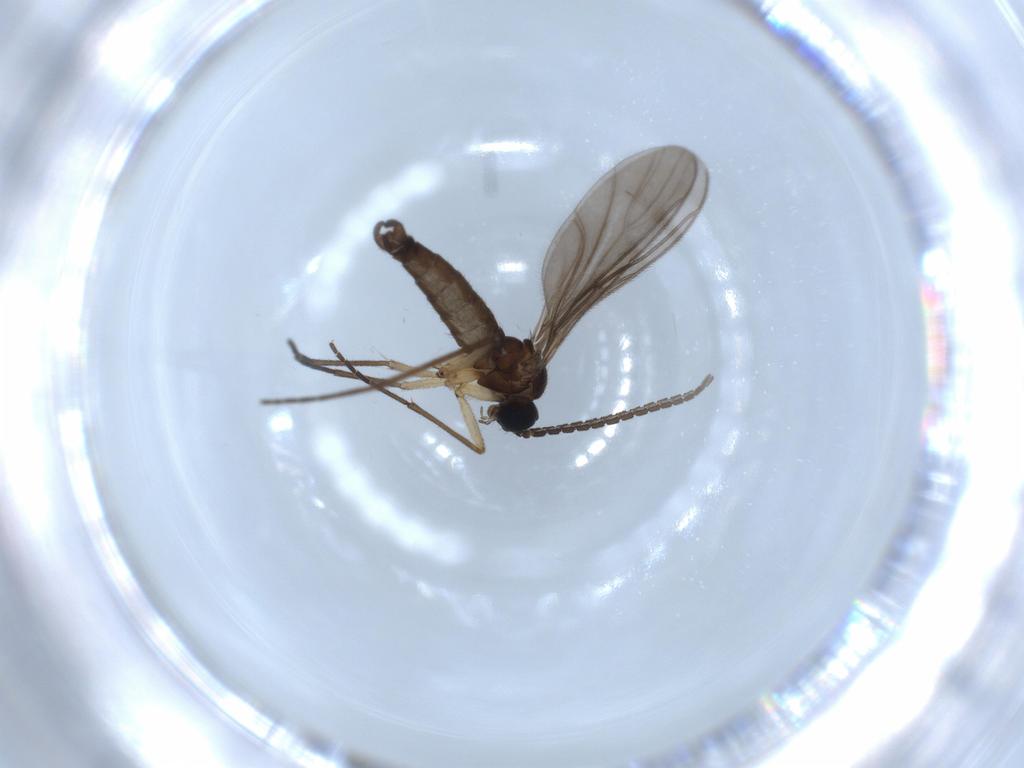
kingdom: Animalia
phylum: Arthropoda
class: Insecta
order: Diptera
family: Sciaridae
